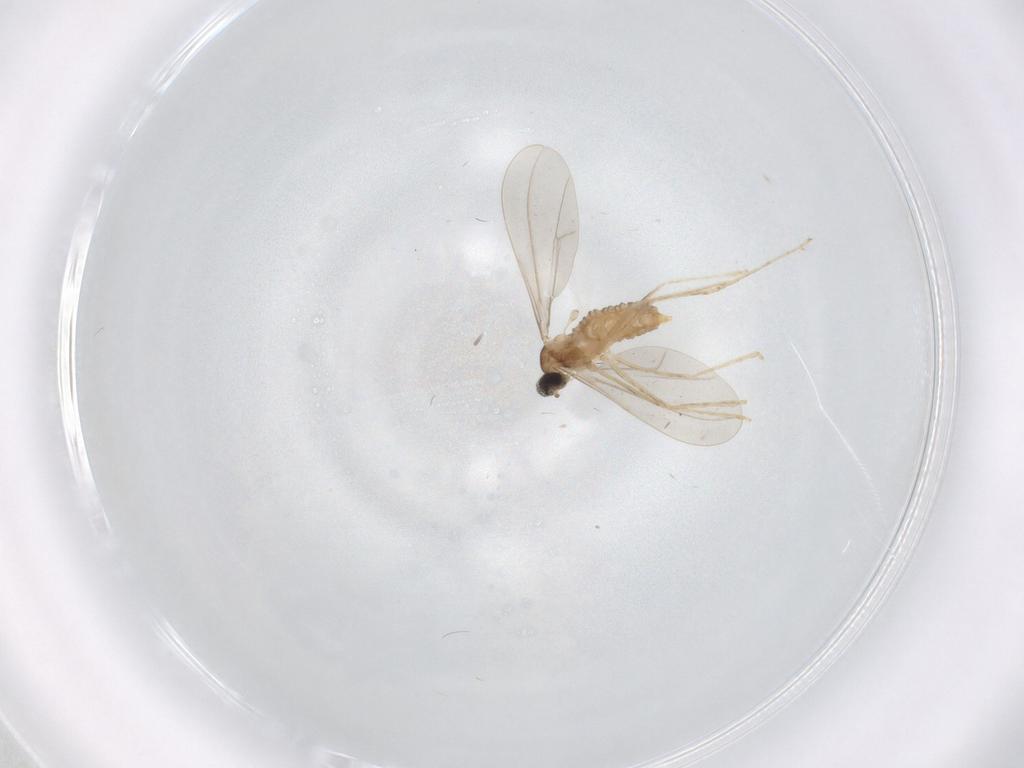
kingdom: Animalia
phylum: Arthropoda
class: Insecta
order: Diptera
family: Cecidomyiidae
